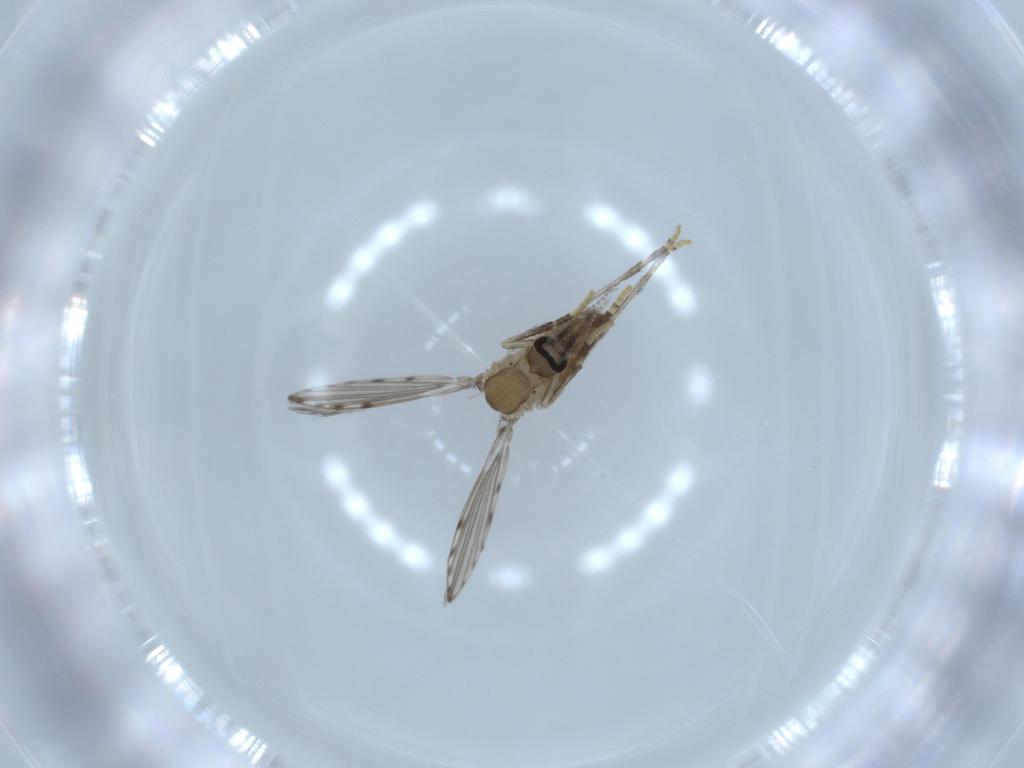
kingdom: Animalia
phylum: Arthropoda
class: Insecta
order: Diptera
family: Psychodidae
